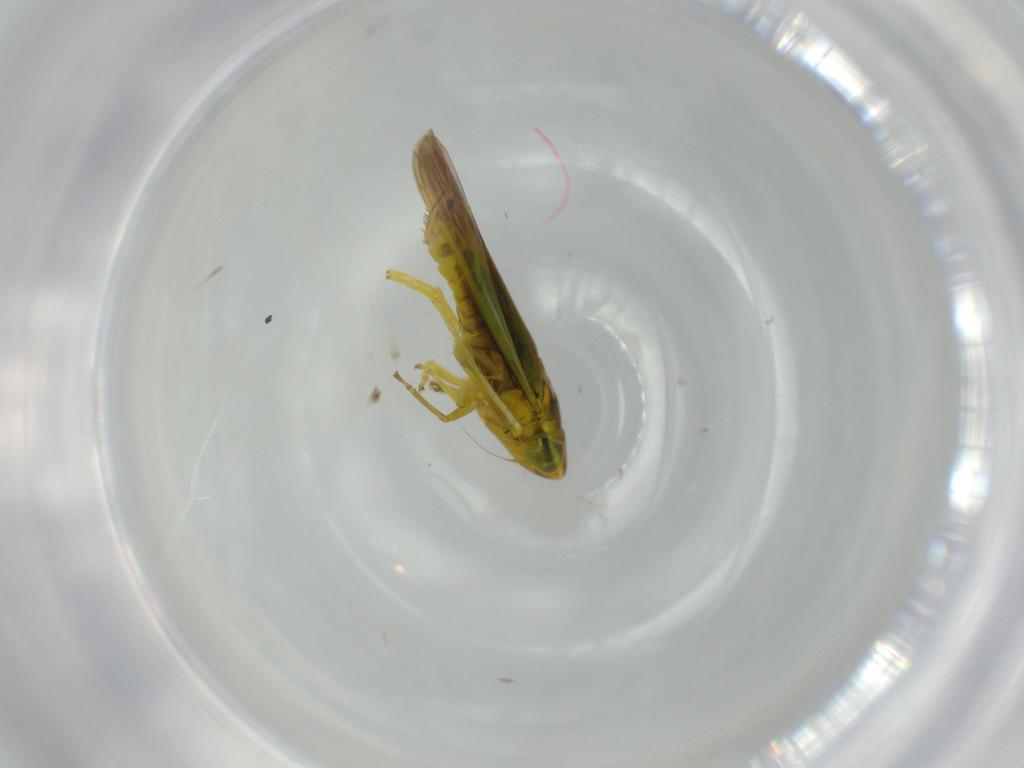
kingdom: Animalia
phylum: Arthropoda
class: Insecta
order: Hemiptera
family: Cicadellidae
